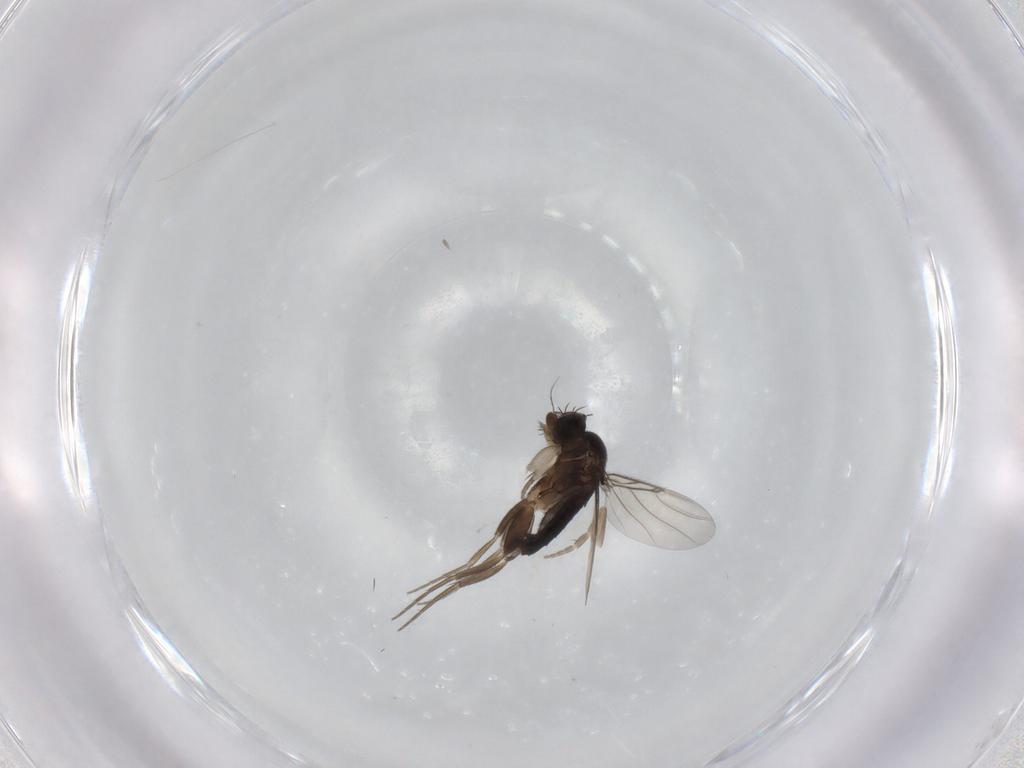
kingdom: Animalia
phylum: Arthropoda
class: Insecta
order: Diptera
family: Phoridae
